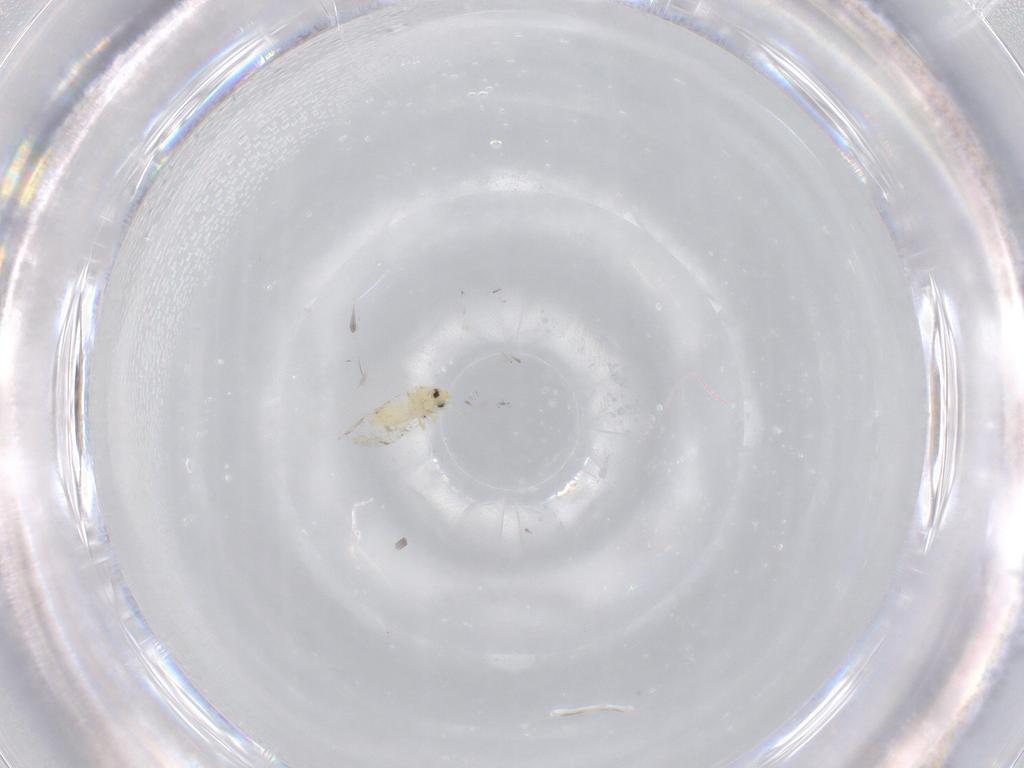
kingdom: Animalia
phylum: Arthropoda
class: Insecta
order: Hemiptera
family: Aleyrodidae
